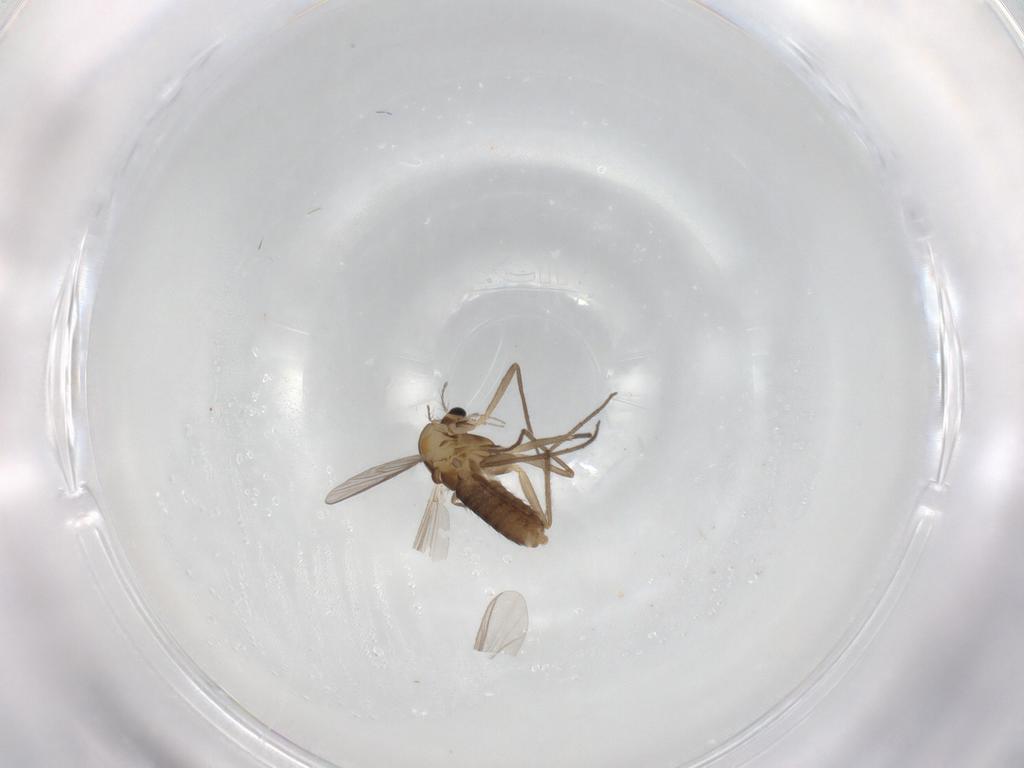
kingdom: Animalia
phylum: Arthropoda
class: Insecta
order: Diptera
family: Chironomidae
